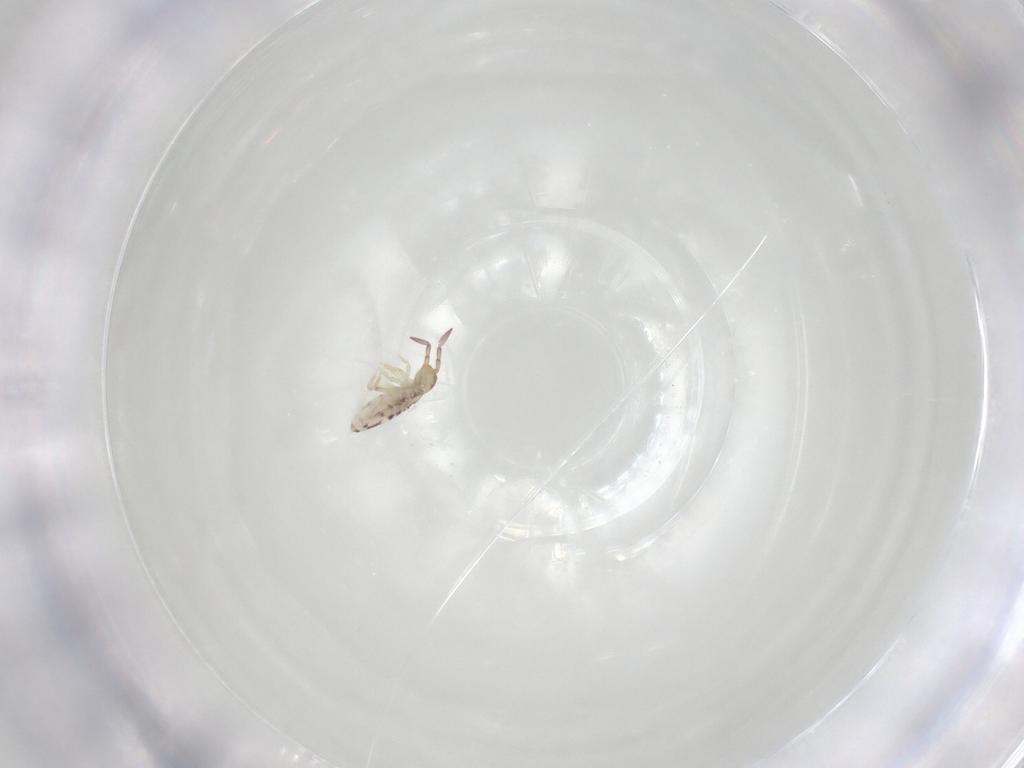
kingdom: Animalia
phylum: Arthropoda
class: Collembola
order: Entomobryomorpha
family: Entomobryidae
